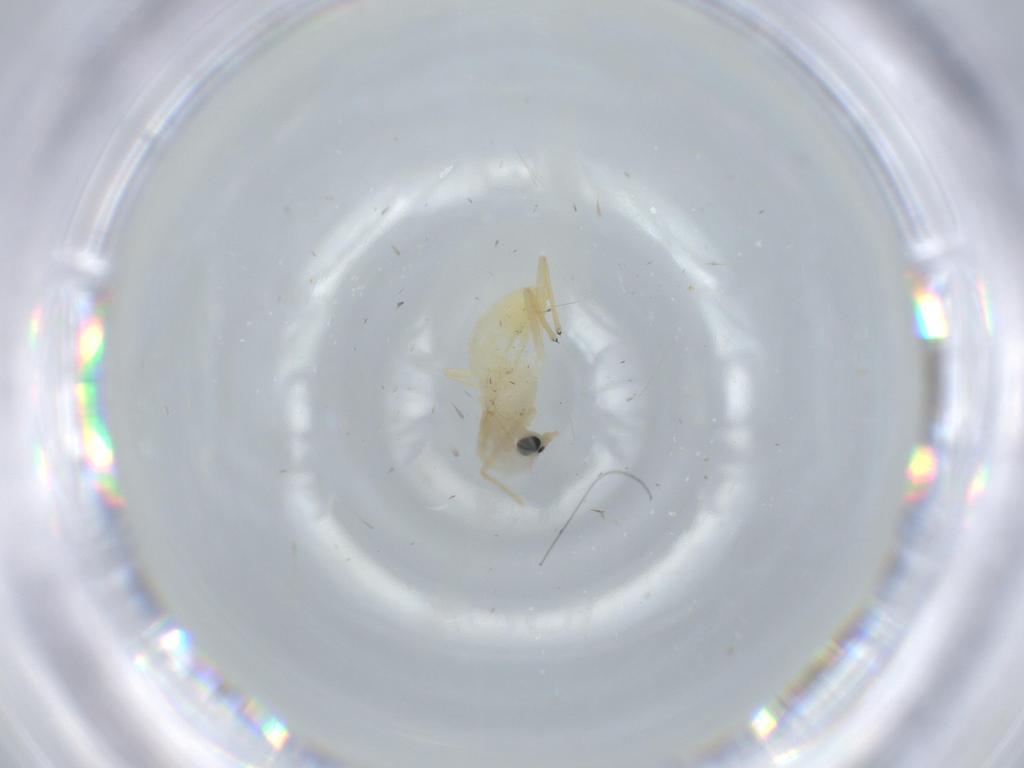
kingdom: Animalia
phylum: Arthropoda
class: Insecta
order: Diptera
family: Chironomidae
